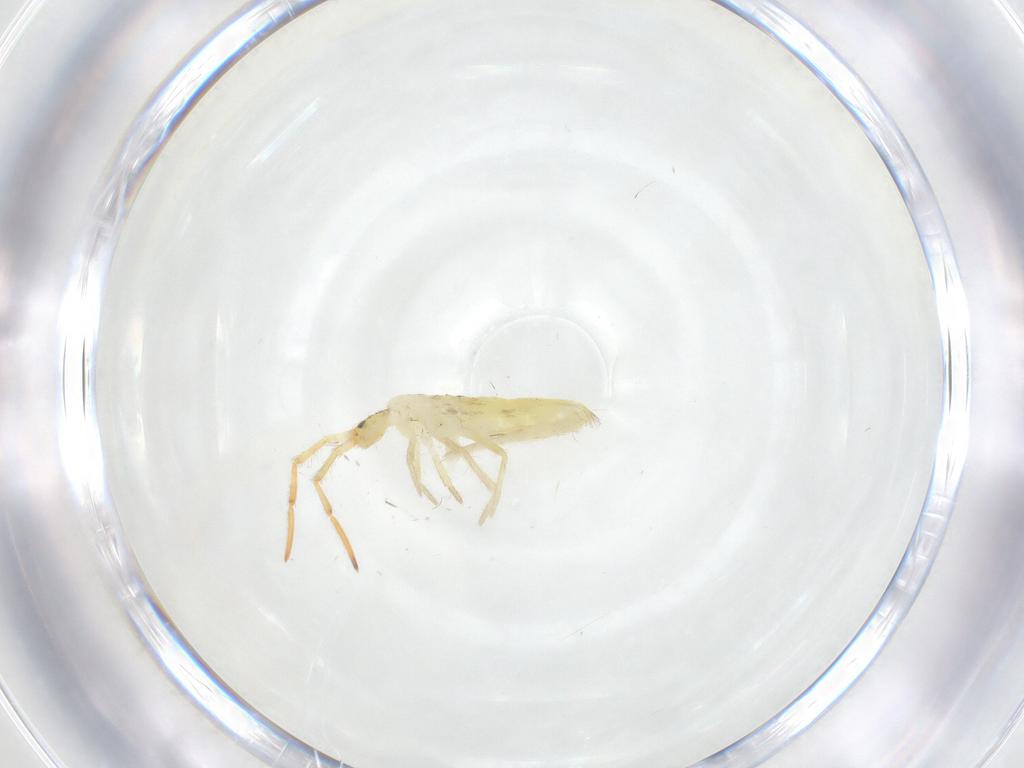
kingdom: Animalia
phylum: Arthropoda
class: Collembola
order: Entomobryomorpha
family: Entomobryidae
